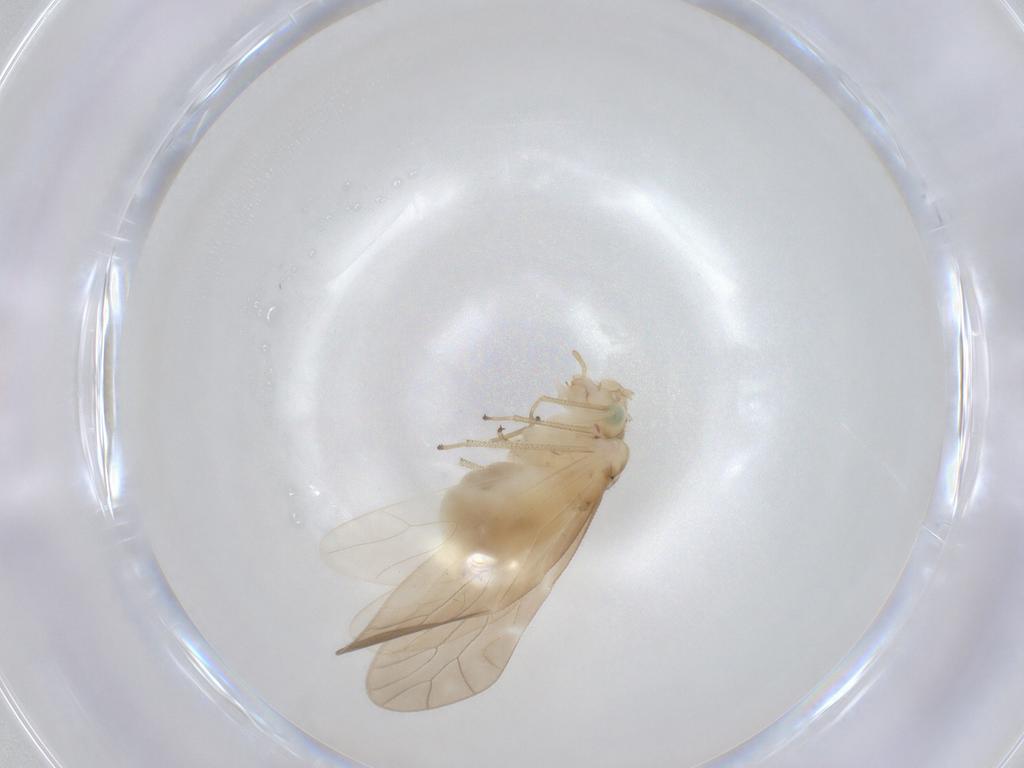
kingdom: Animalia
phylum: Arthropoda
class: Insecta
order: Psocodea
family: Caeciliusidae
